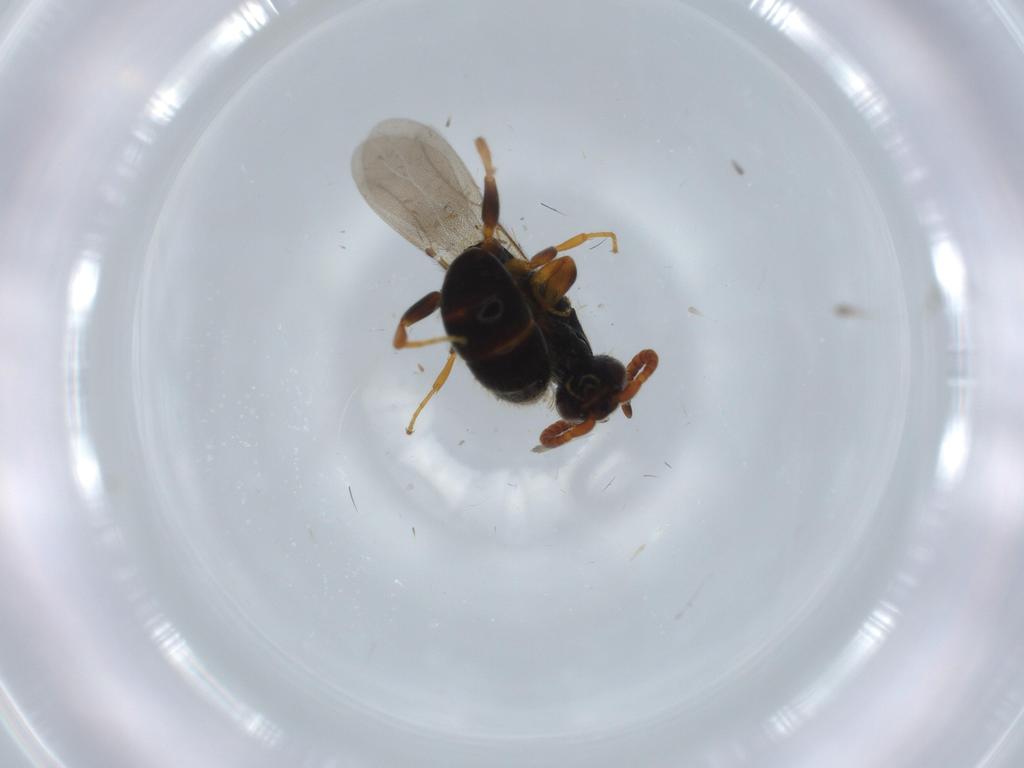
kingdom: Animalia
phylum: Arthropoda
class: Insecta
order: Hymenoptera
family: Bethylidae
